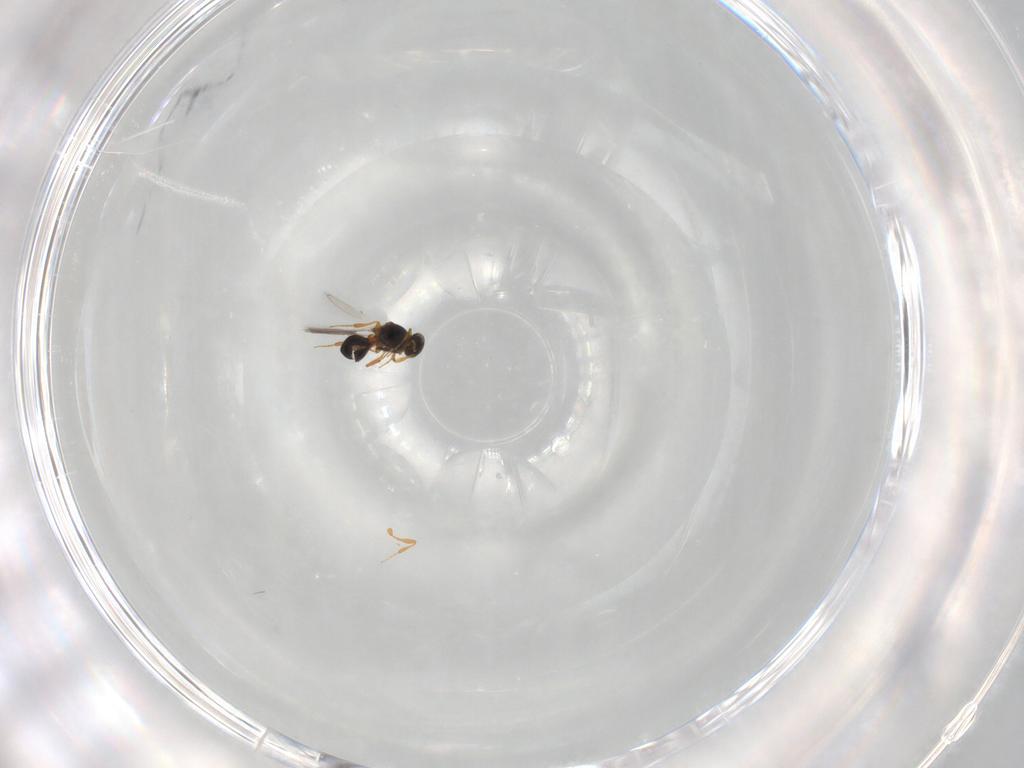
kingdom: Animalia
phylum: Arthropoda
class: Insecta
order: Hymenoptera
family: Platygastridae
